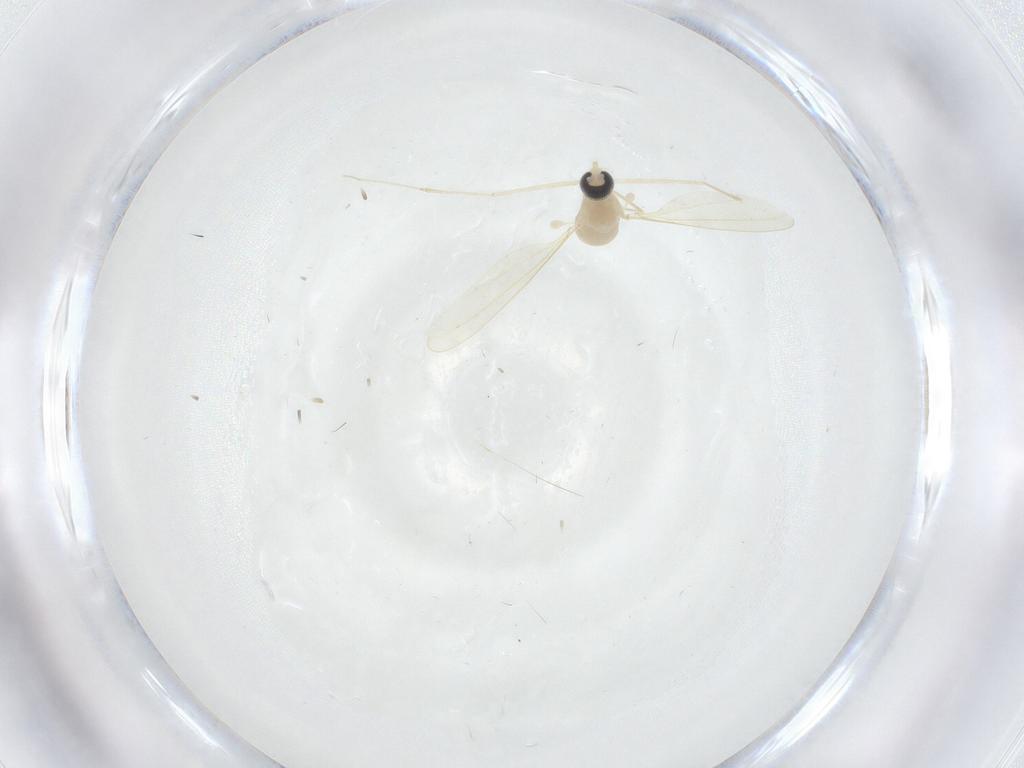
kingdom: Animalia
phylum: Arthropoda
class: Insecta
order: Diptera
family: Cecidomyiidae
